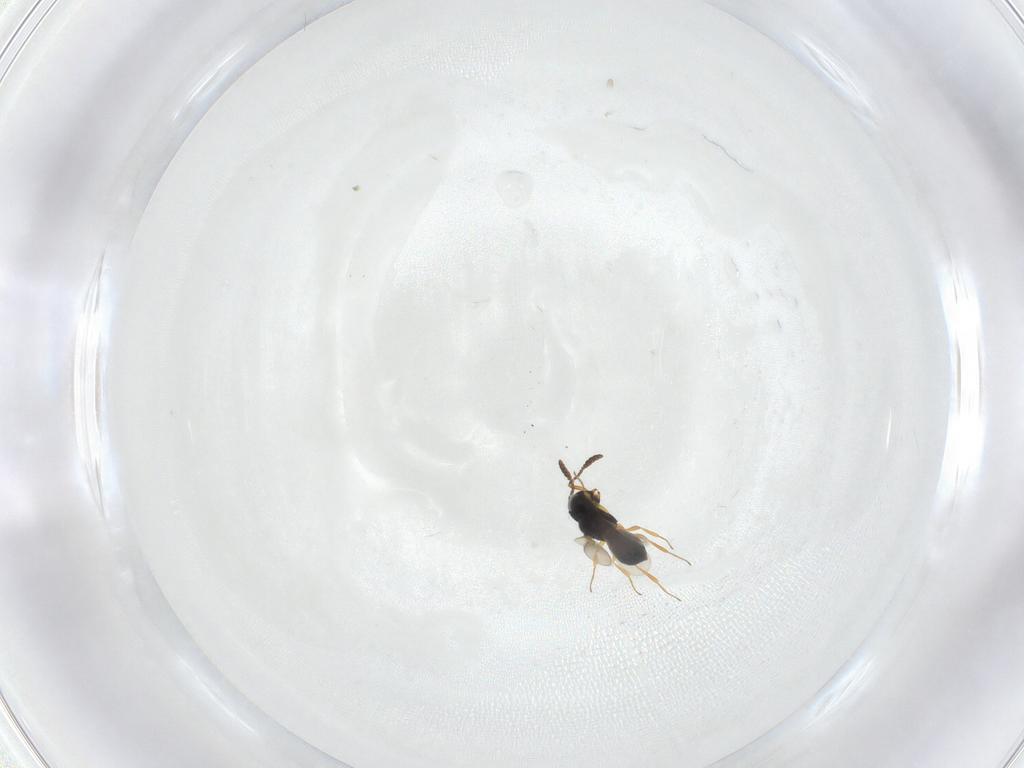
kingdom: Animalia
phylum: Arthropoda
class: Insecta
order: Hymenoptera
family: Scelionidae
